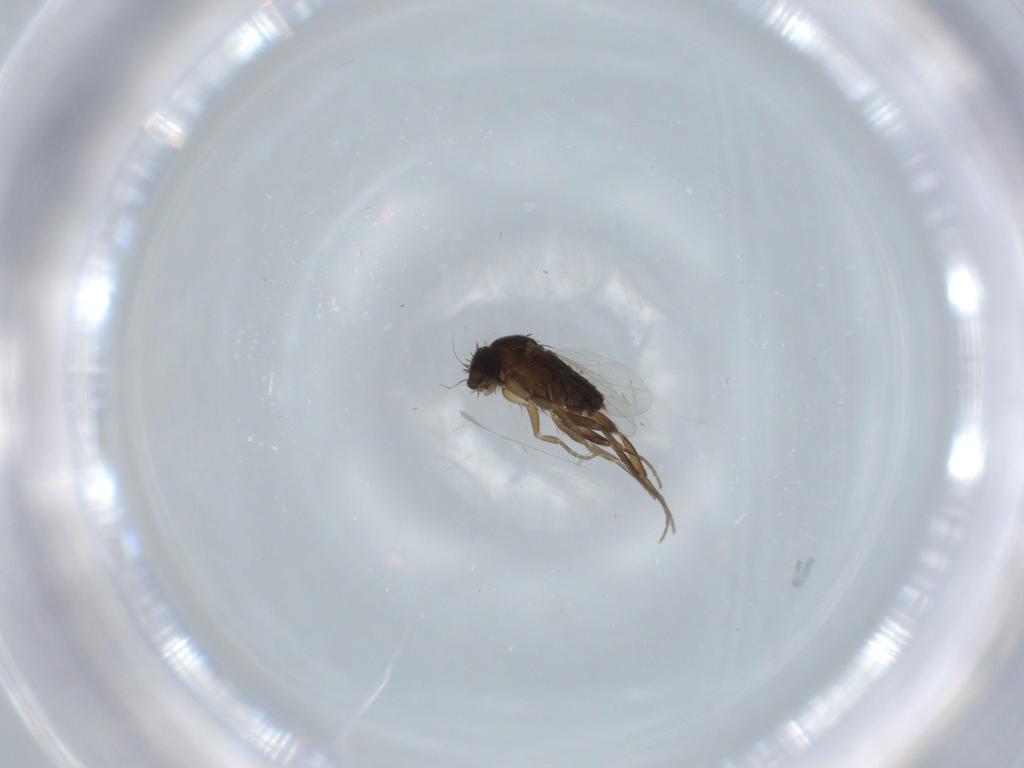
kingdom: Animalia
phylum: Arthropoda
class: Insecta
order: Diptera
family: Phoridae
